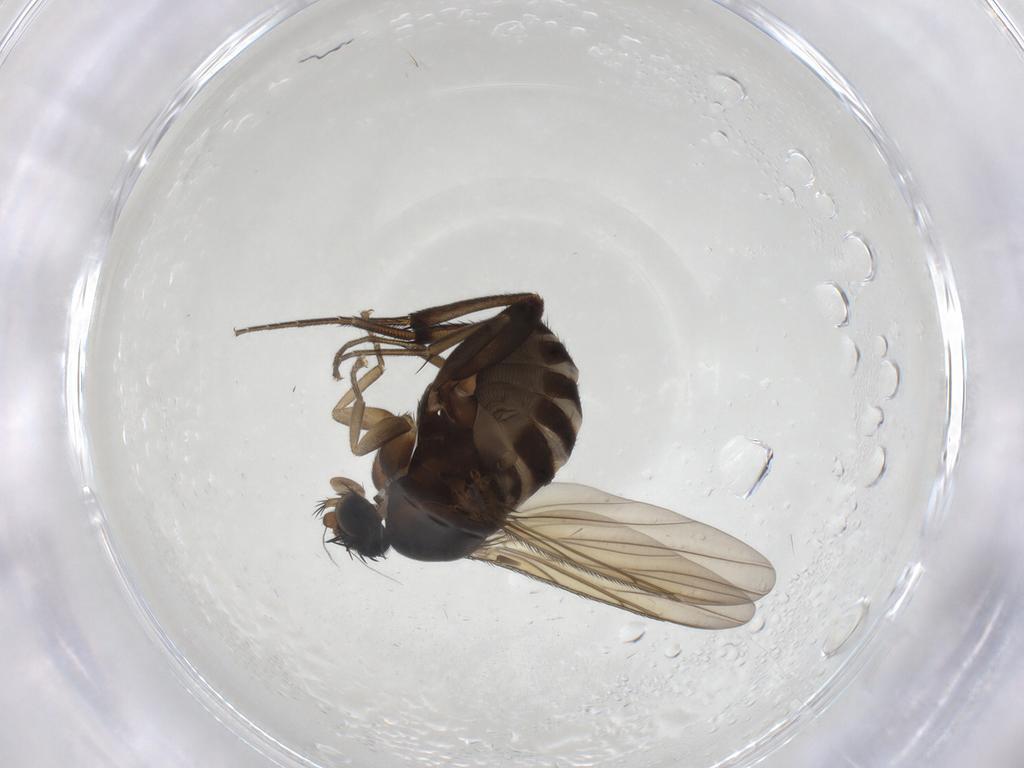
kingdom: Animalia
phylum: Arthropoda
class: Insecta
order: Diptera
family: Phoridae
